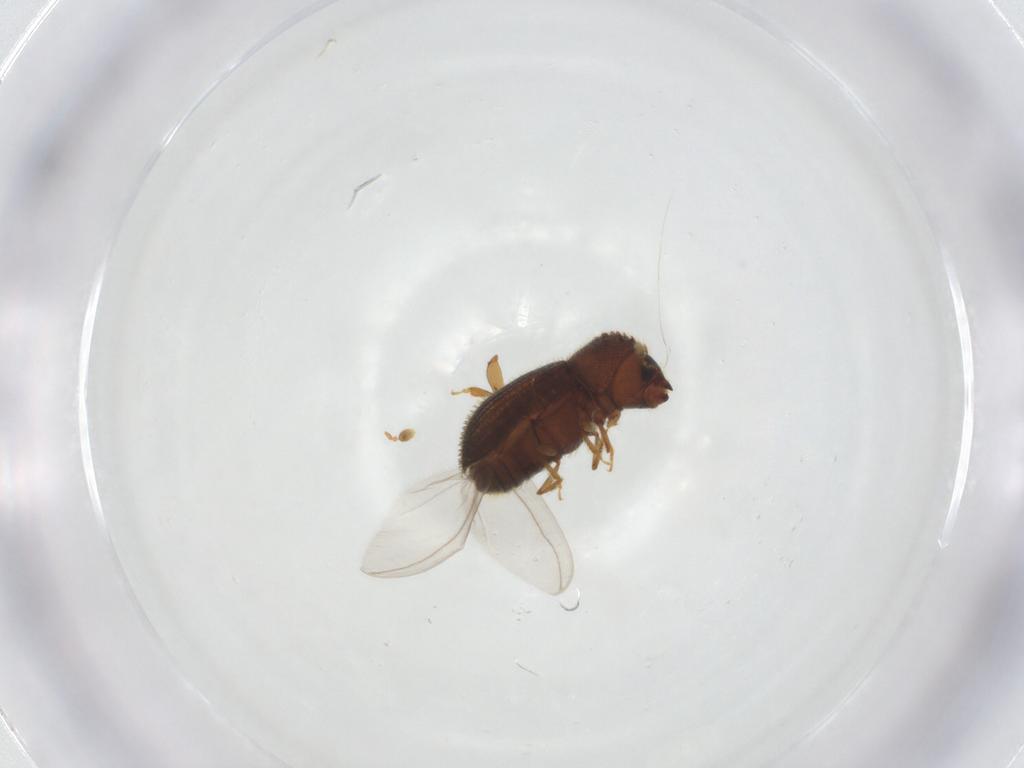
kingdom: Animalia
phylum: Arthropoda
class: Insecta
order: Coleoptera
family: Curculionidae
